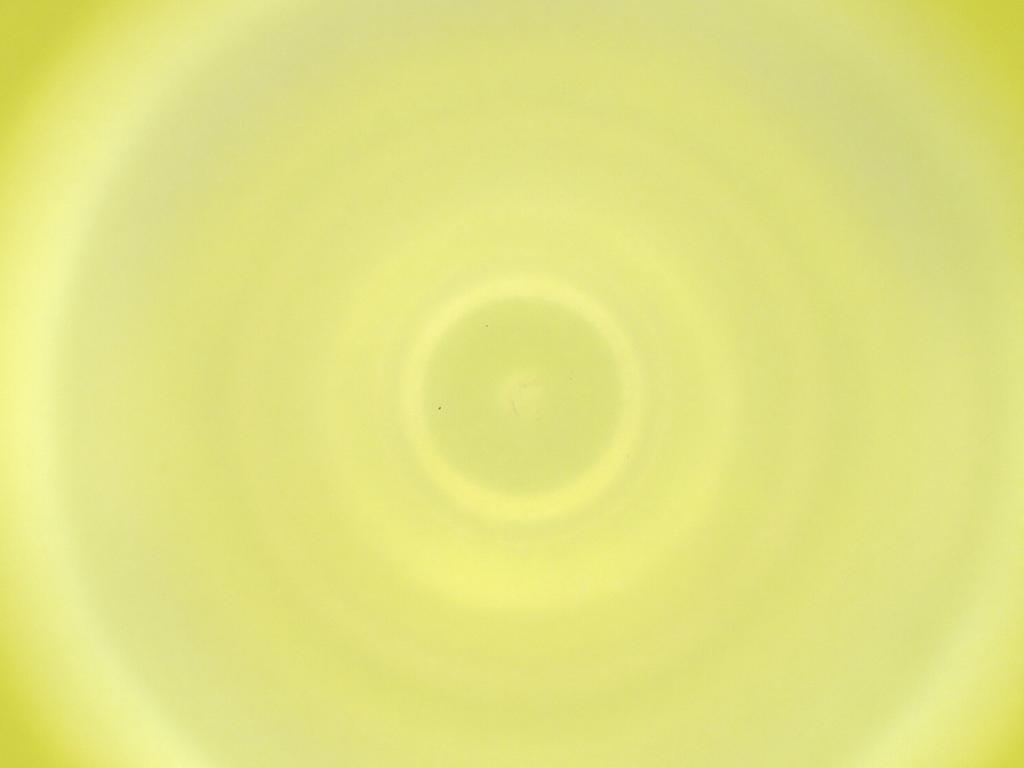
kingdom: Animalia
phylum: Arthropoda
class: Insecta
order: Diptera
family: Cecidomyiidae
